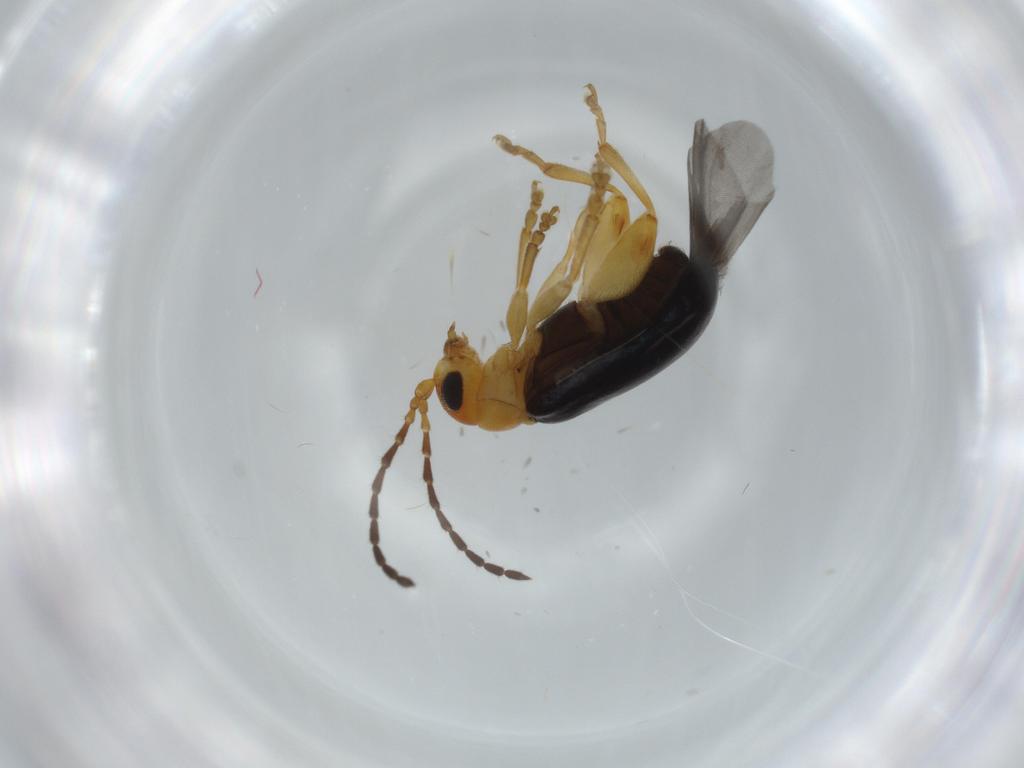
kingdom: Animalia
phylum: Arthropoda
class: Insecta
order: Coleoptera
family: Chrysomelidae
